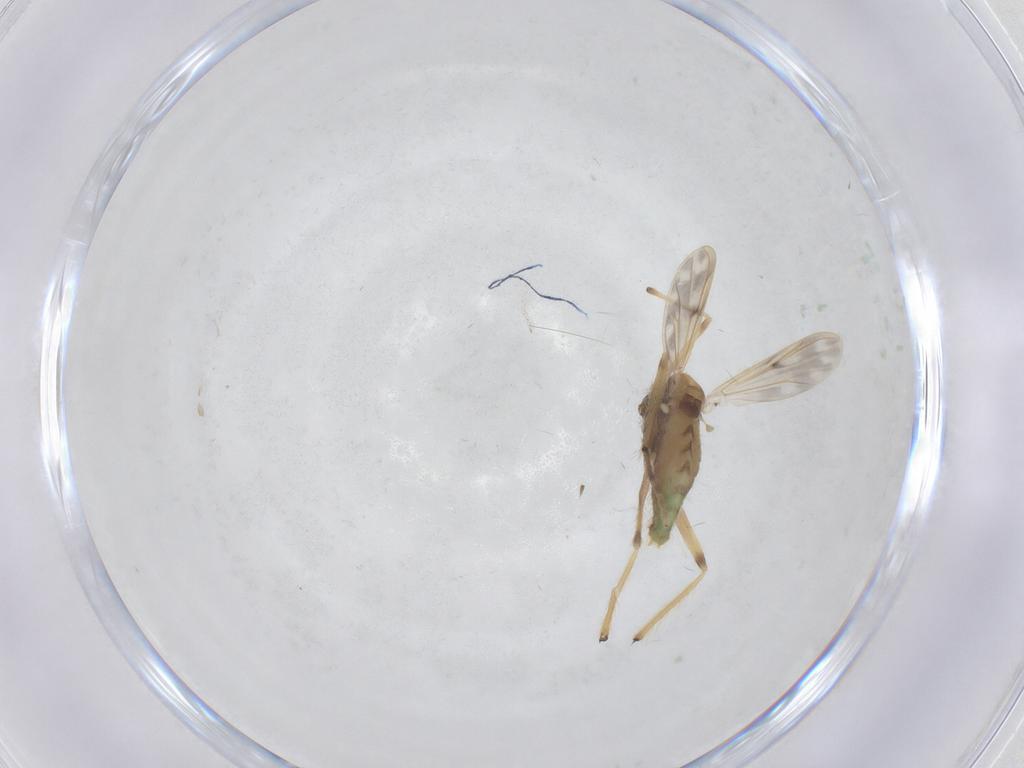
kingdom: Animalia
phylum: Arthropoda
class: Insecta
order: Diptera
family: Chironomidae
